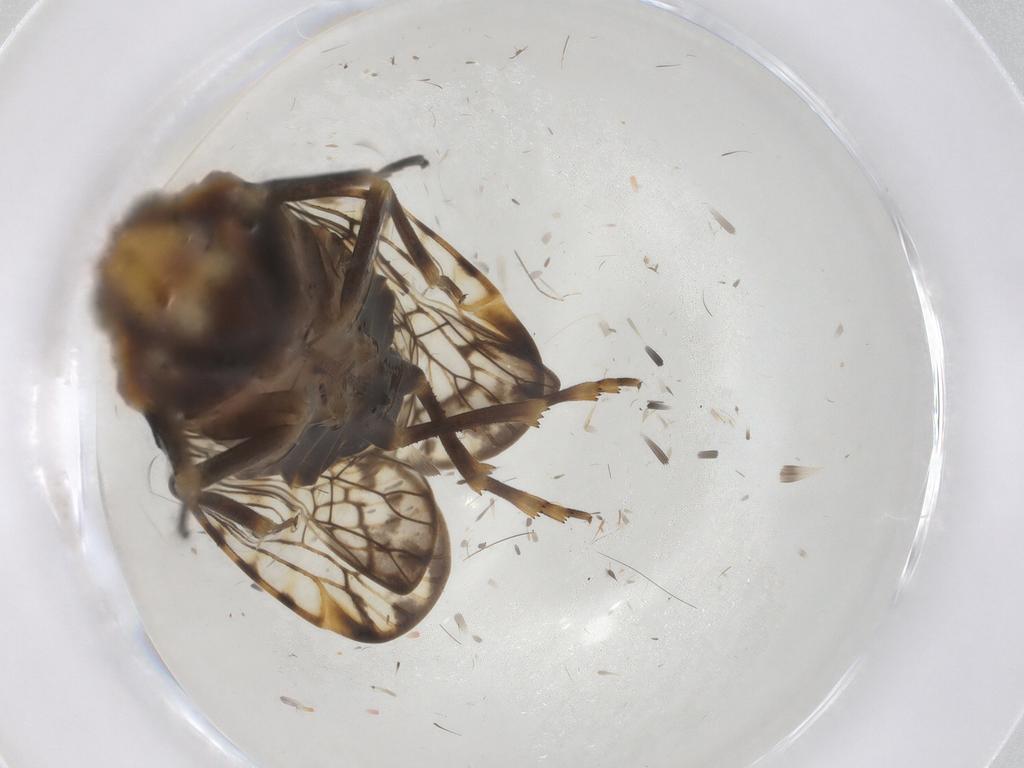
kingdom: Animalia
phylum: Arthropoda
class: Insecta
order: Hemiptera
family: Cixiidae
